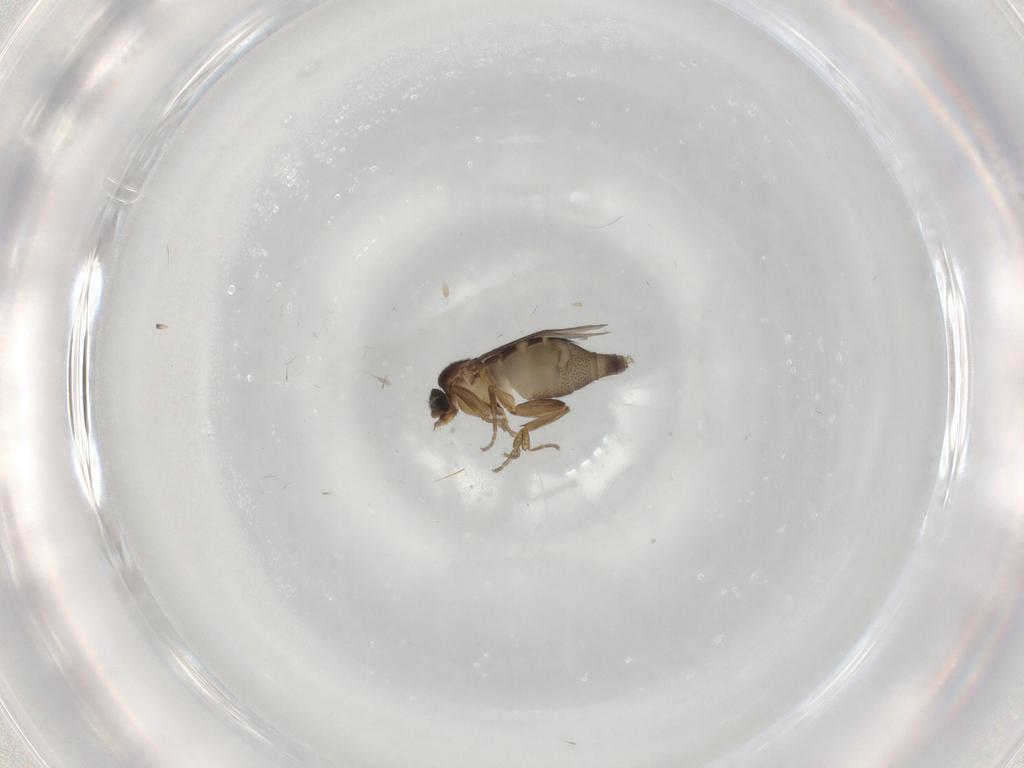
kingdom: Animalia
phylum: Arthropoda
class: Insecta
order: Diptera
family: Phoridae
